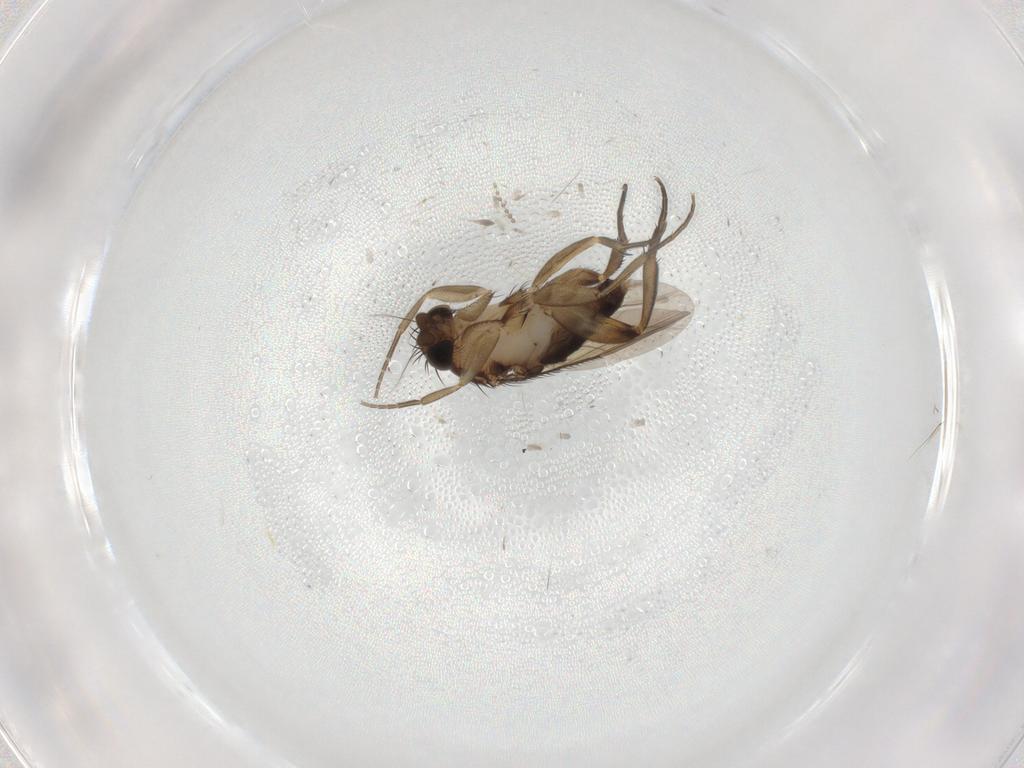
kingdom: Animalia
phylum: Arthropoda
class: Insecta
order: Diptera
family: Phoridae
